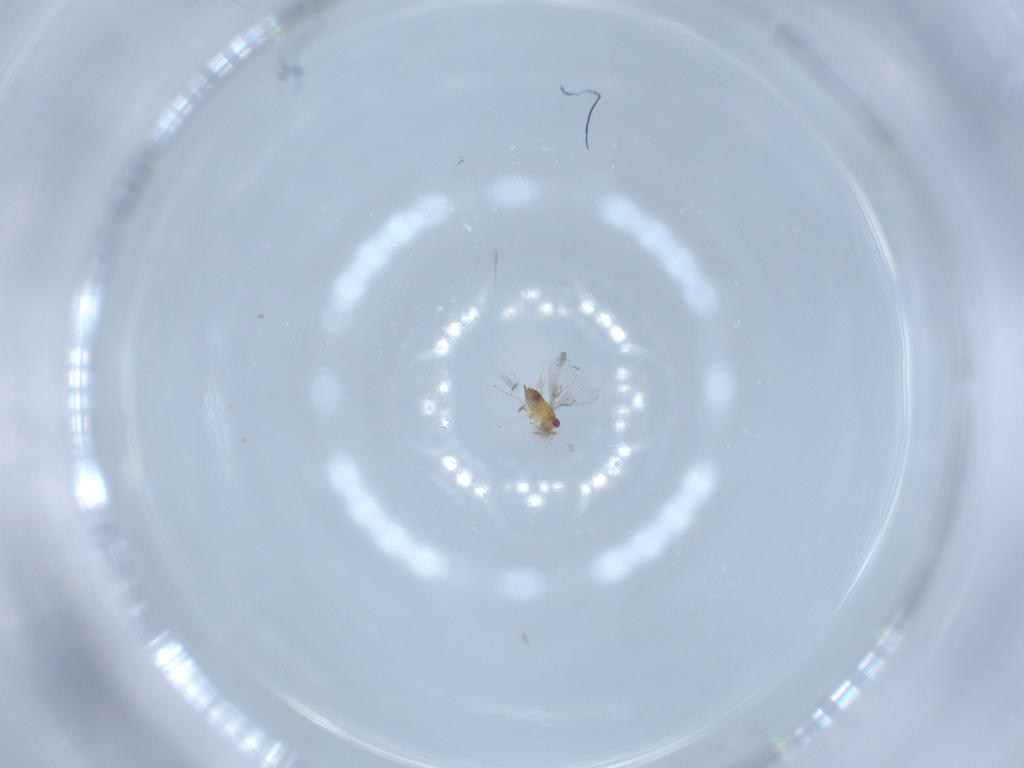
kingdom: Animalia
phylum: Arthropoda
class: Insecta
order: Hymenoptera
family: Trichogrammatidae
